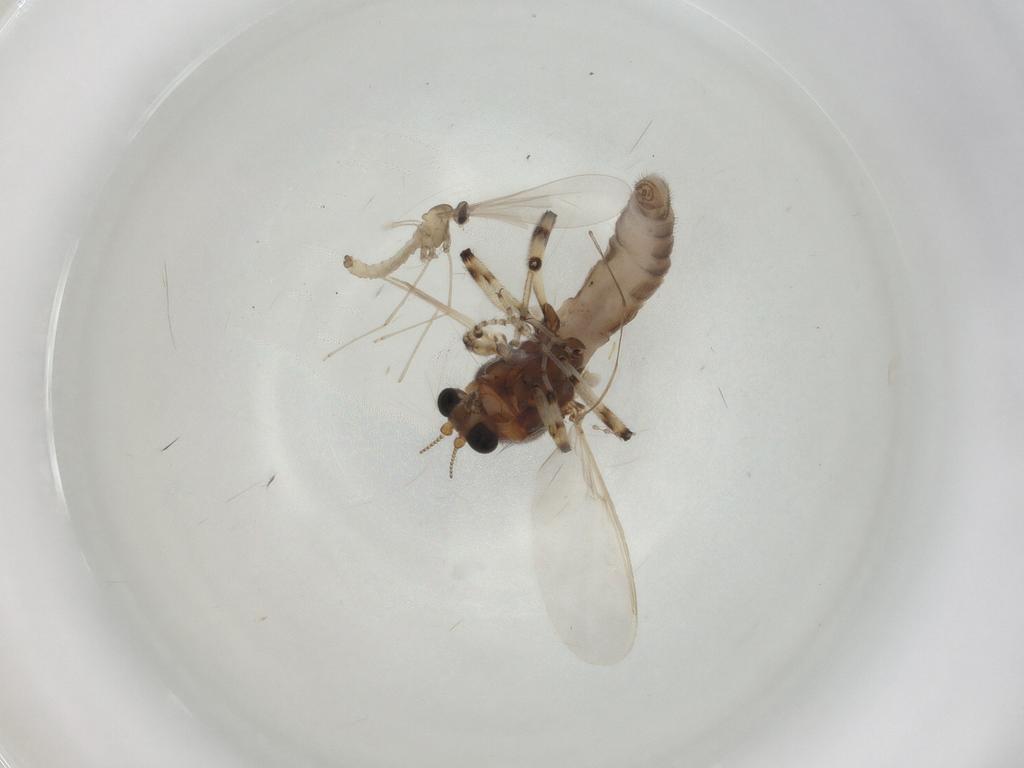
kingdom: Animalia
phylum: Arthropoda
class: Insecta
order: Diptera
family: Ceratopogonidae
